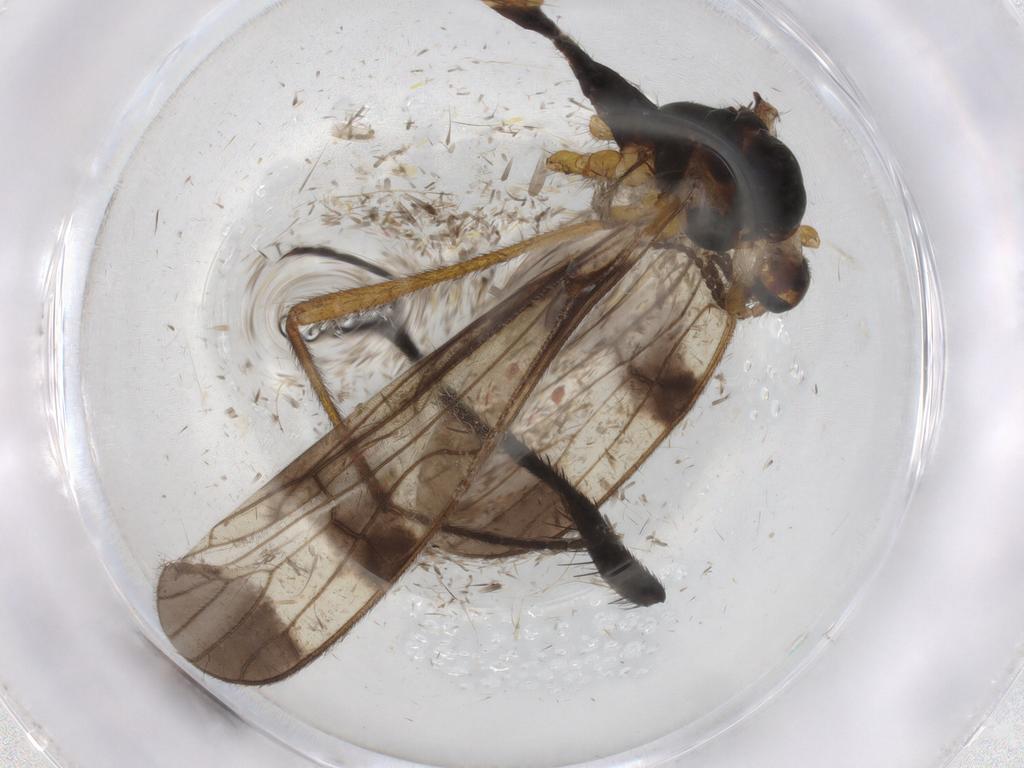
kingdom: Animalia
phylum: Arthropoda
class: Insecta
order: Diptera
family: Limoniidae
